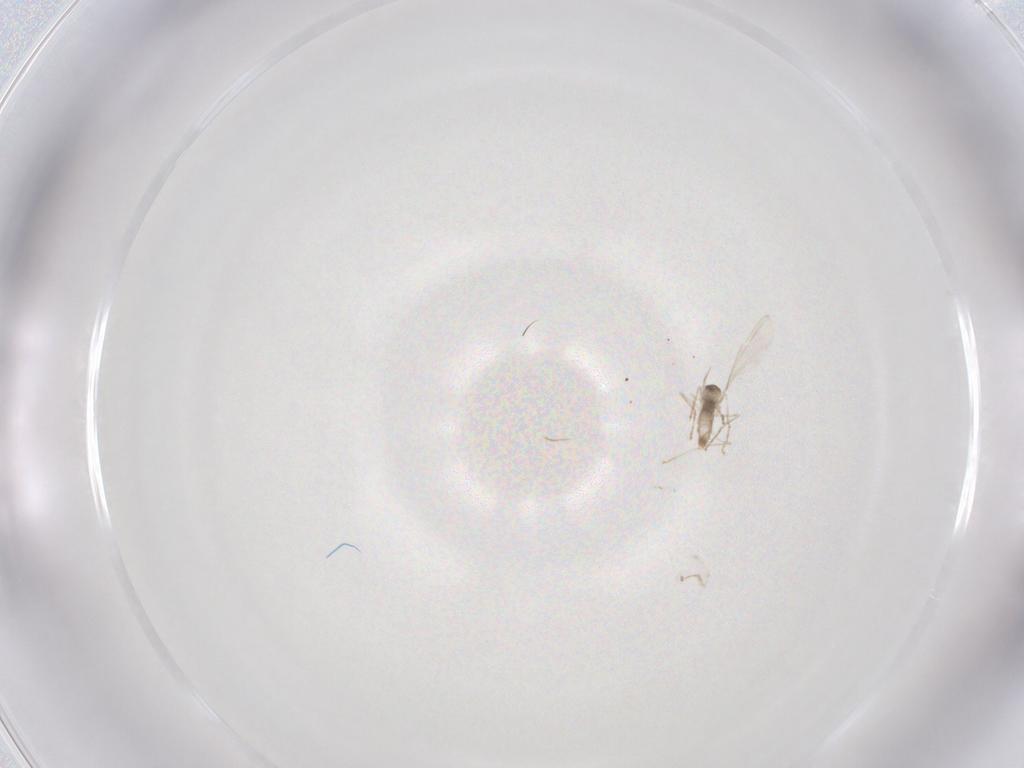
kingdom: Animalia
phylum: Arthropoda
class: Insecta
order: Diptera
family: Cecidomyiidae
